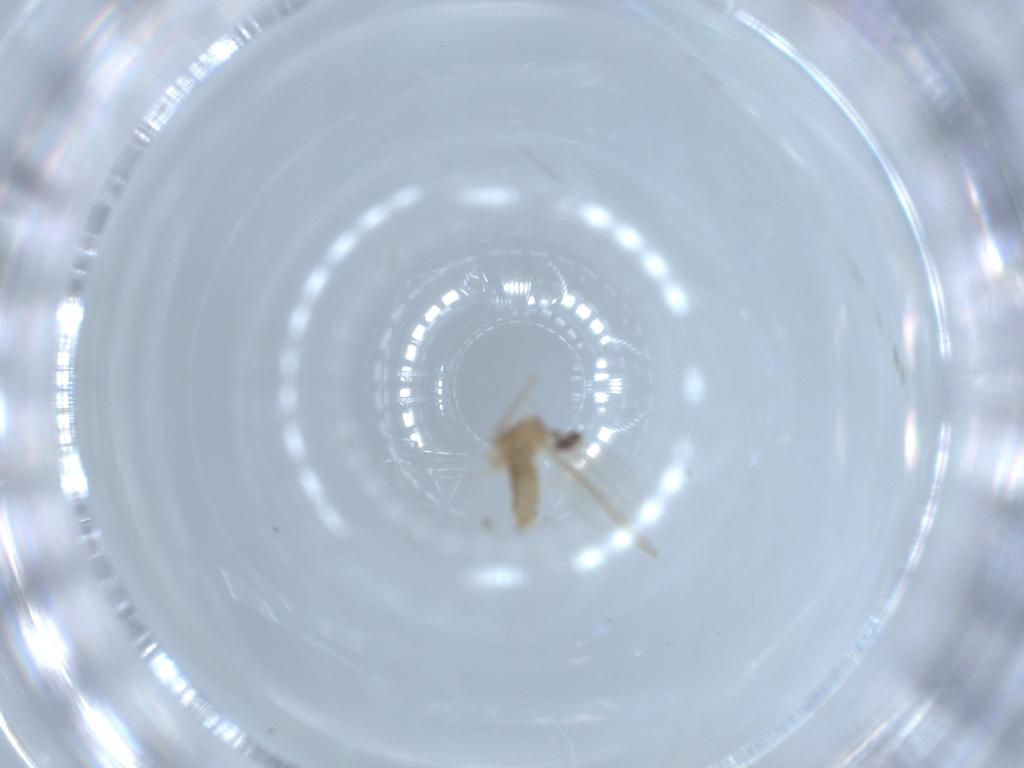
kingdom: Animalia
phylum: Arthropoda
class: Insecta
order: Diptera
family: Cecidomyiidae
